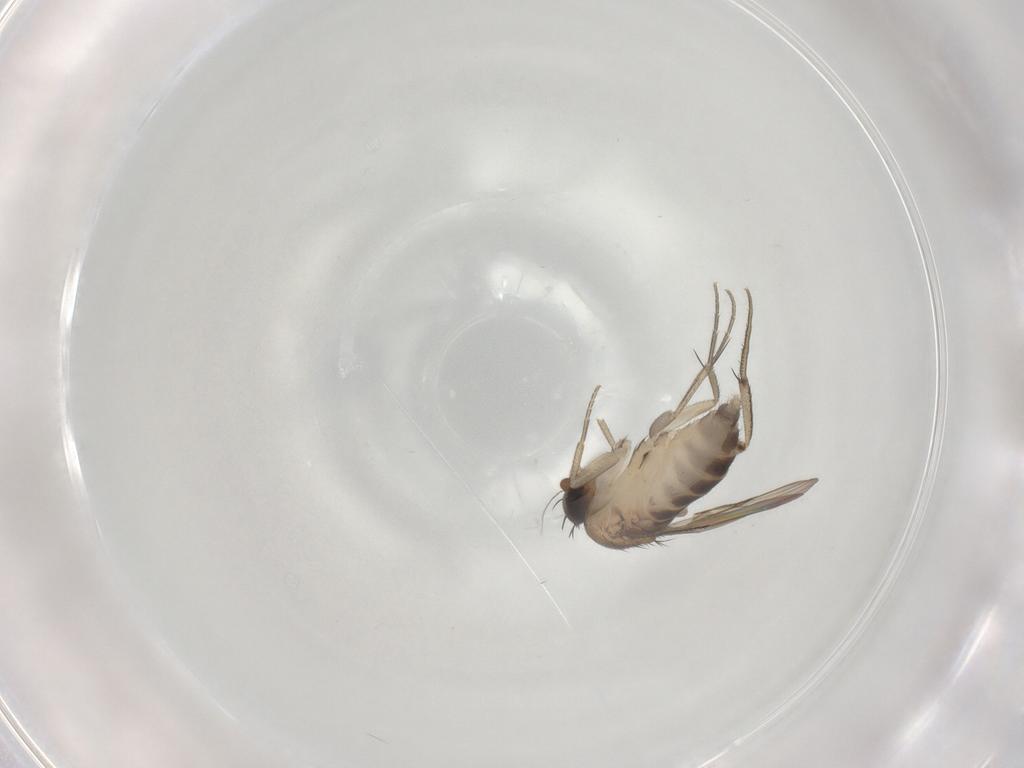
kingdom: Animalia
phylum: Arthropoda
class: Insecta
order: Diptera
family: Phoridae
